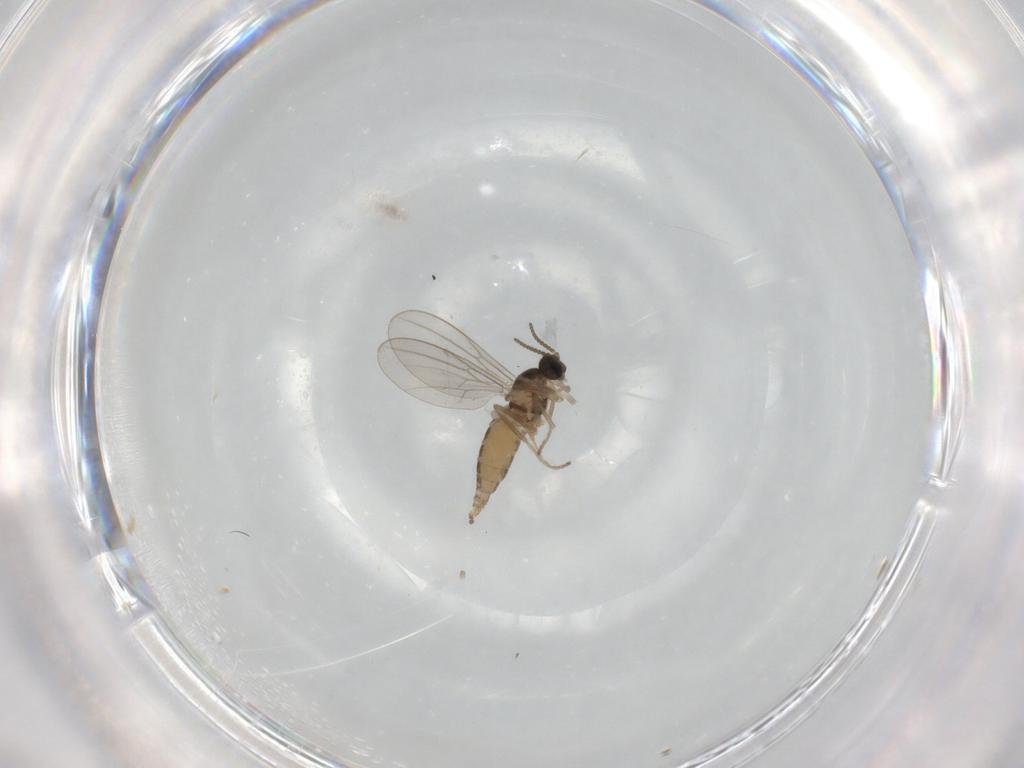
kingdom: Animalia
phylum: Arthropoda
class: Insecta
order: Diptera
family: Cecidomyiidae
